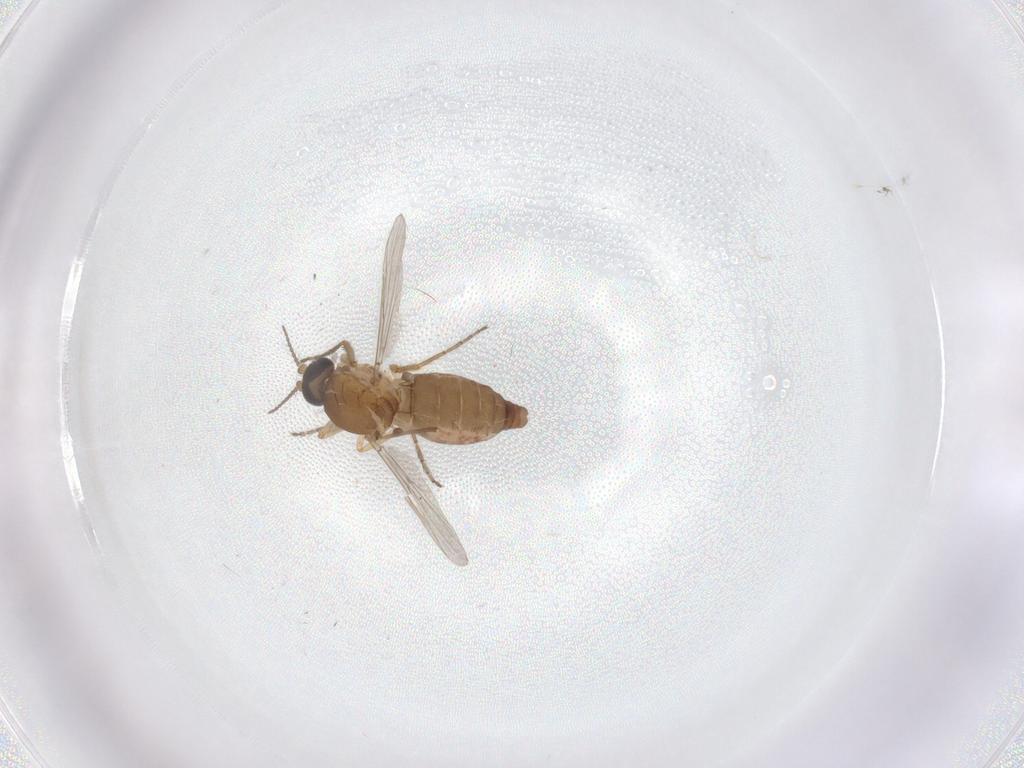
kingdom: Animalia
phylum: Arthropoda
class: Insecta
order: Diptera
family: Ceratopogonidae
